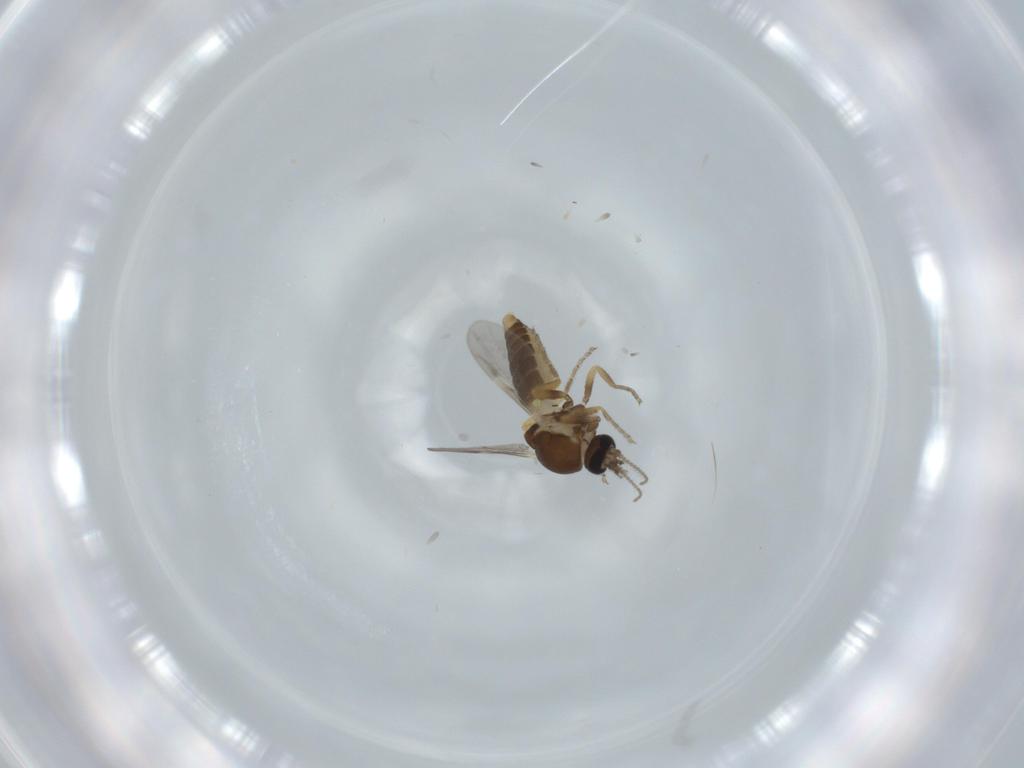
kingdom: Animalia
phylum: Arthropoda
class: Insecta
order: Diptera
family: Ceratopogonidae
